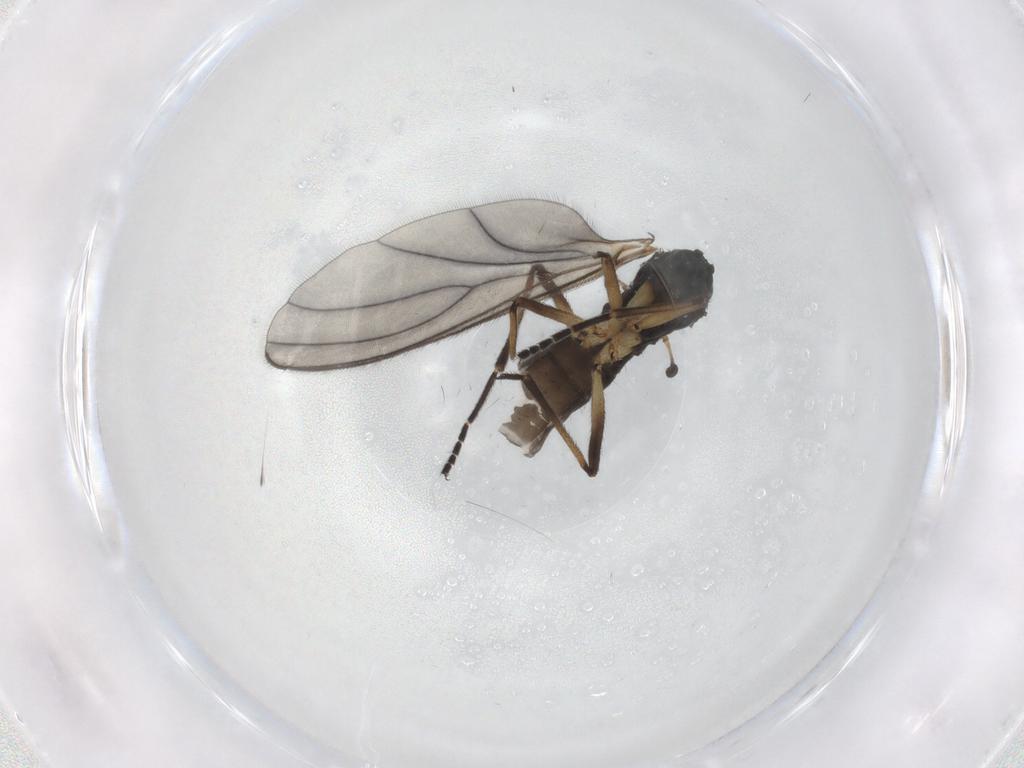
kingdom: Animalia
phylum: Arthropoda
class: Insecta
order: Diptera
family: Sciaridae
